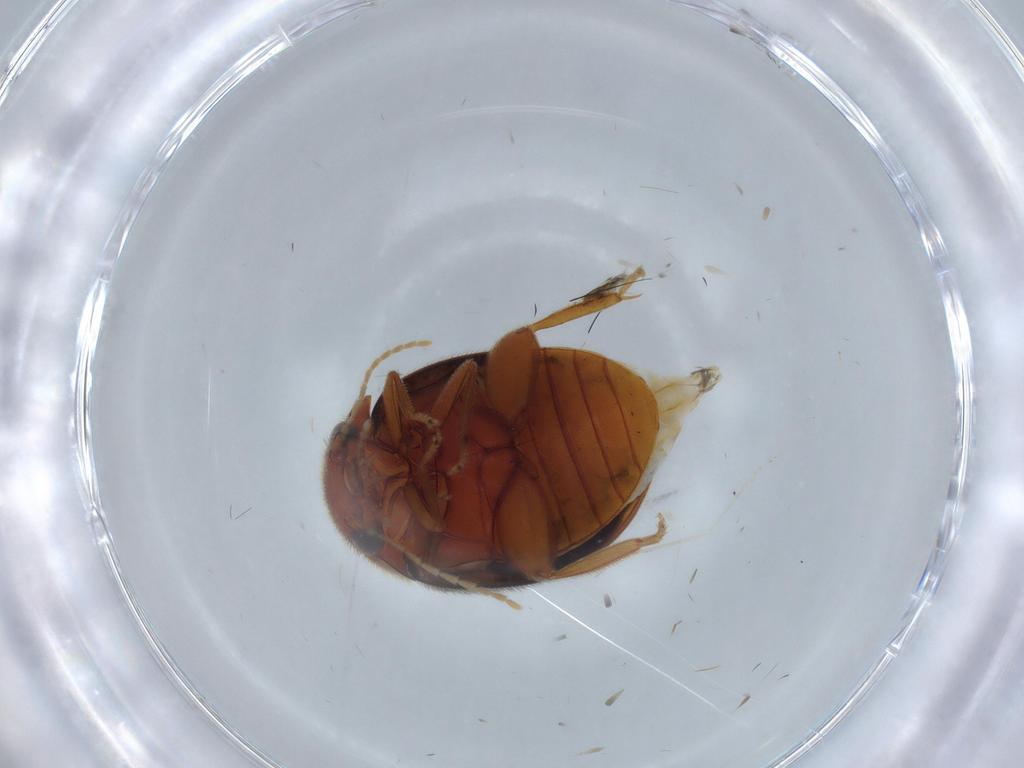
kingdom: Animalia
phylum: Arthropoda
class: Insecta
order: Coleoptera
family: Scirtidae
